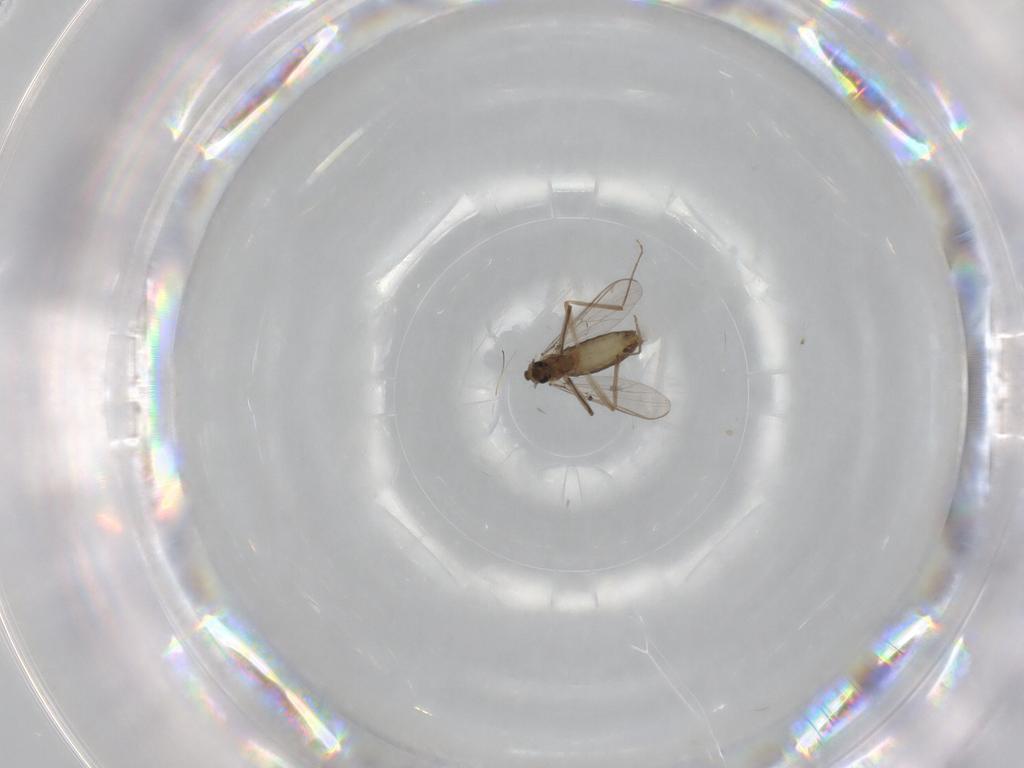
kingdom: Animalia
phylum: Arthropoda
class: Insecta
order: Diptera
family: Chironomidae
